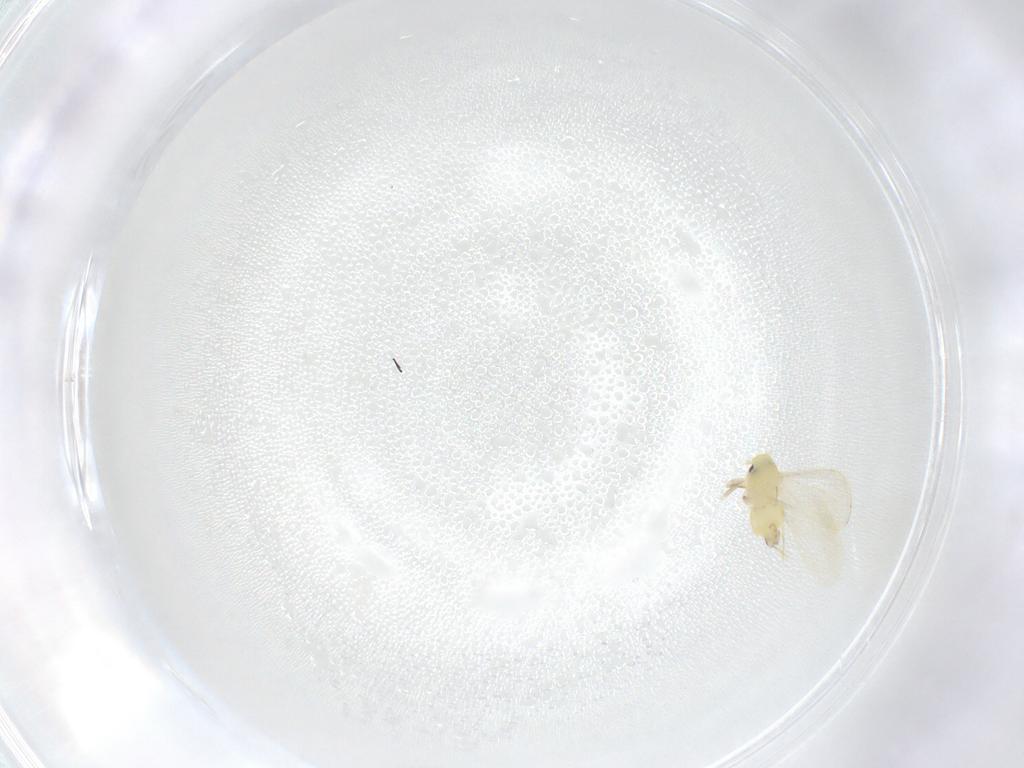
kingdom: Animalia
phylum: Arthropoda
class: Insecta
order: Hemiptera
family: Aleyrodidae
